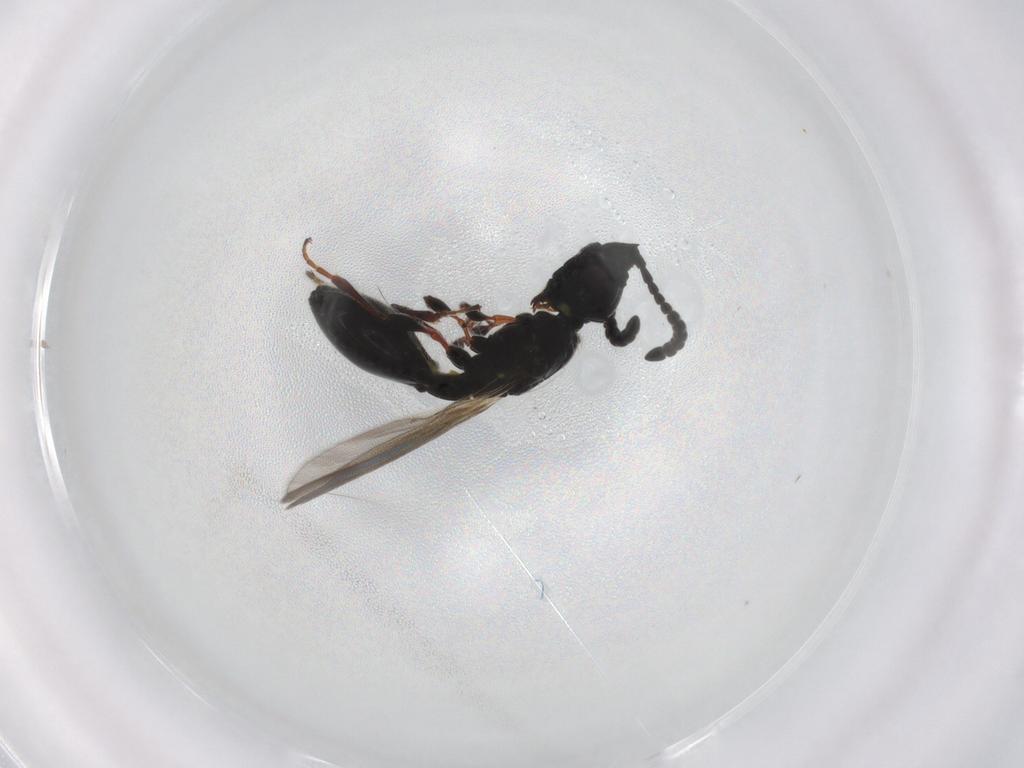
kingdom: Animalia
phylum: Arthropoda
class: Insecta
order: Hymenoptera
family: Diapriidae
